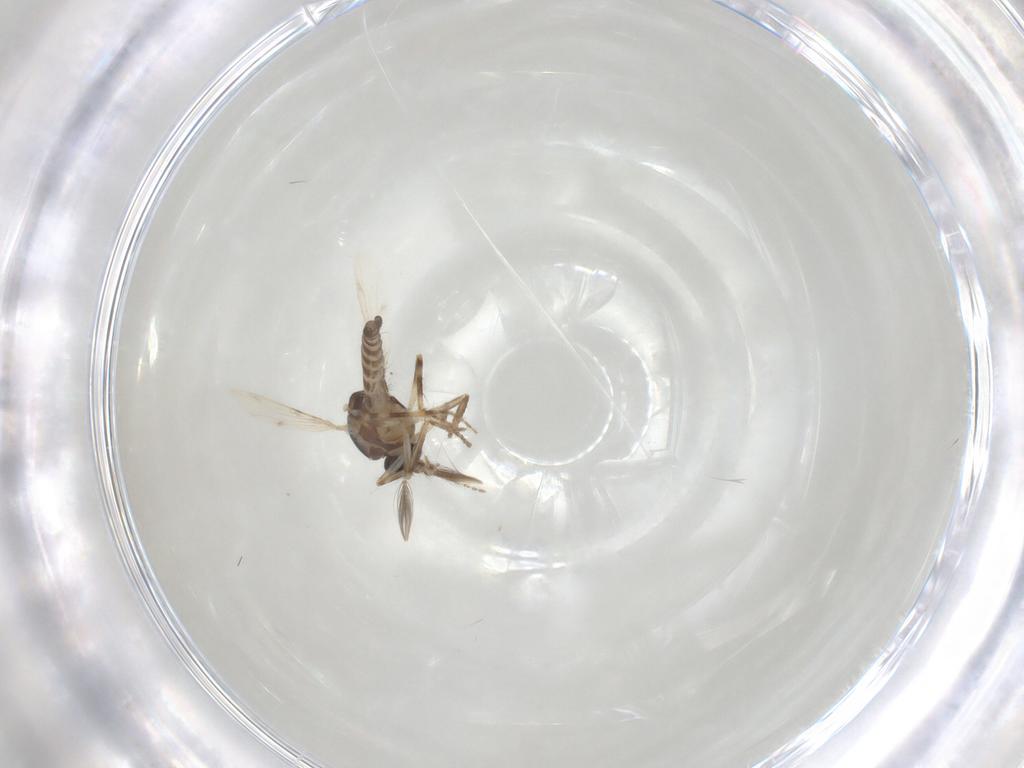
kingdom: Animalia
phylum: Arthropoda
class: Insecta
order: Diptera
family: Ceratopogonidae
